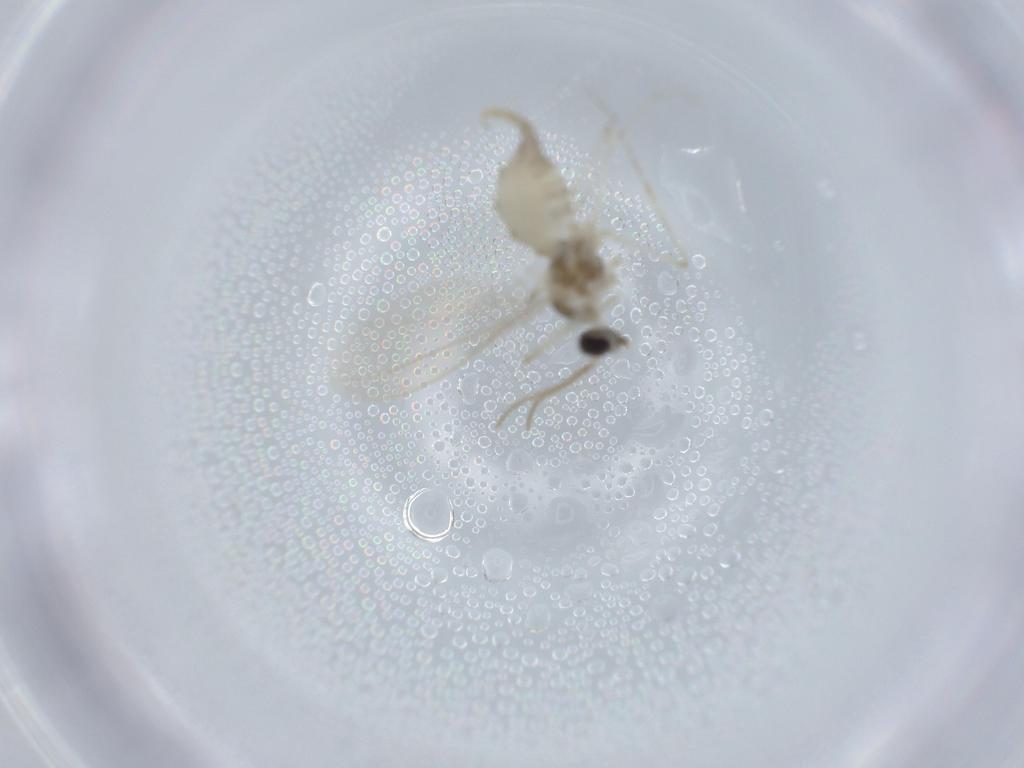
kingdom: Animalia
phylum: Arthropoda
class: Insecta
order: Diptera
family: Cecidomyiidae
